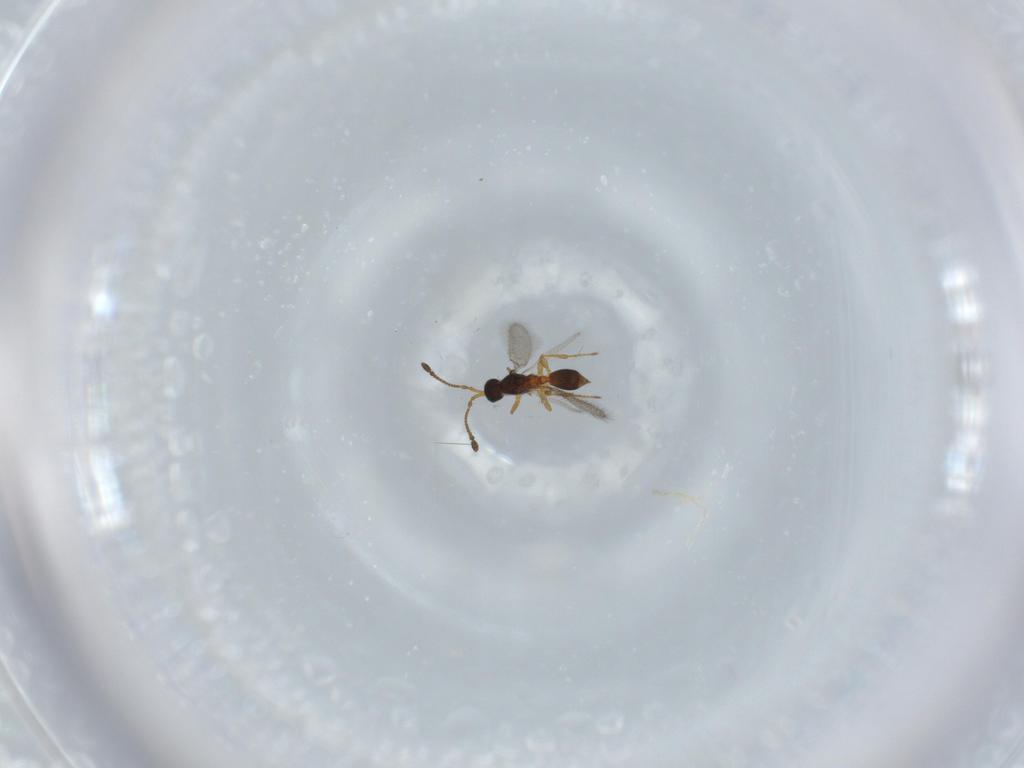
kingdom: Animalia
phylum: Arthropoda
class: Insecta
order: Hymenoptera
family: Diapriidae
